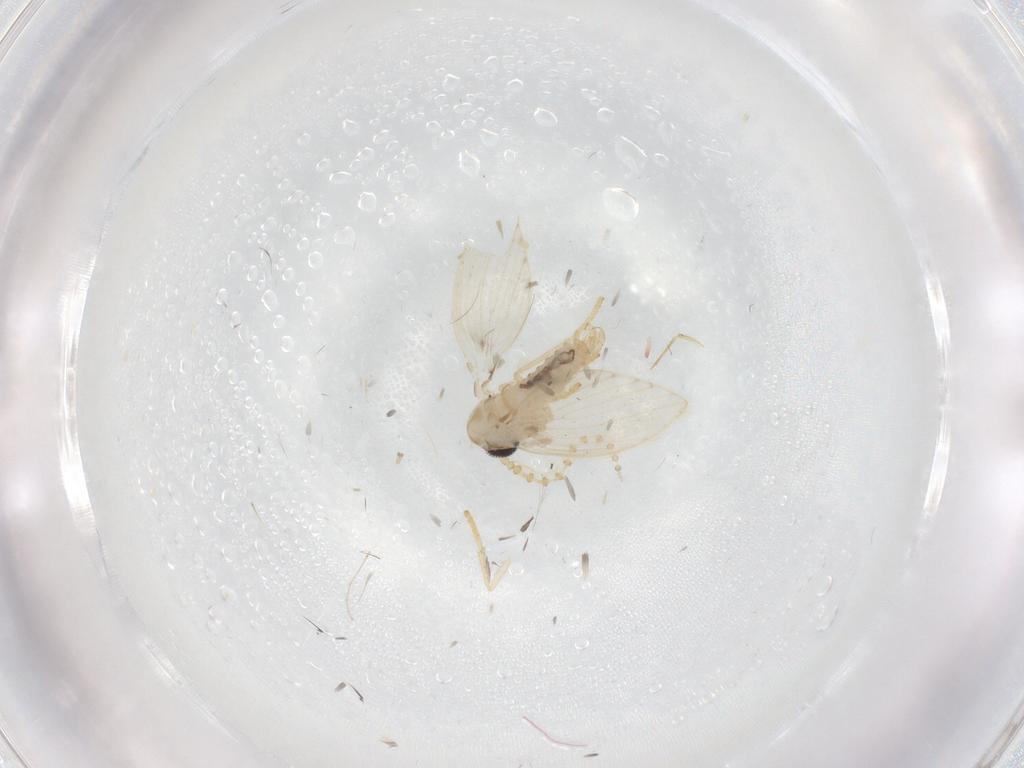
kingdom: Animalia
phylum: Arthropoda
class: Insecta
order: Diptera
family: Psychodidae
